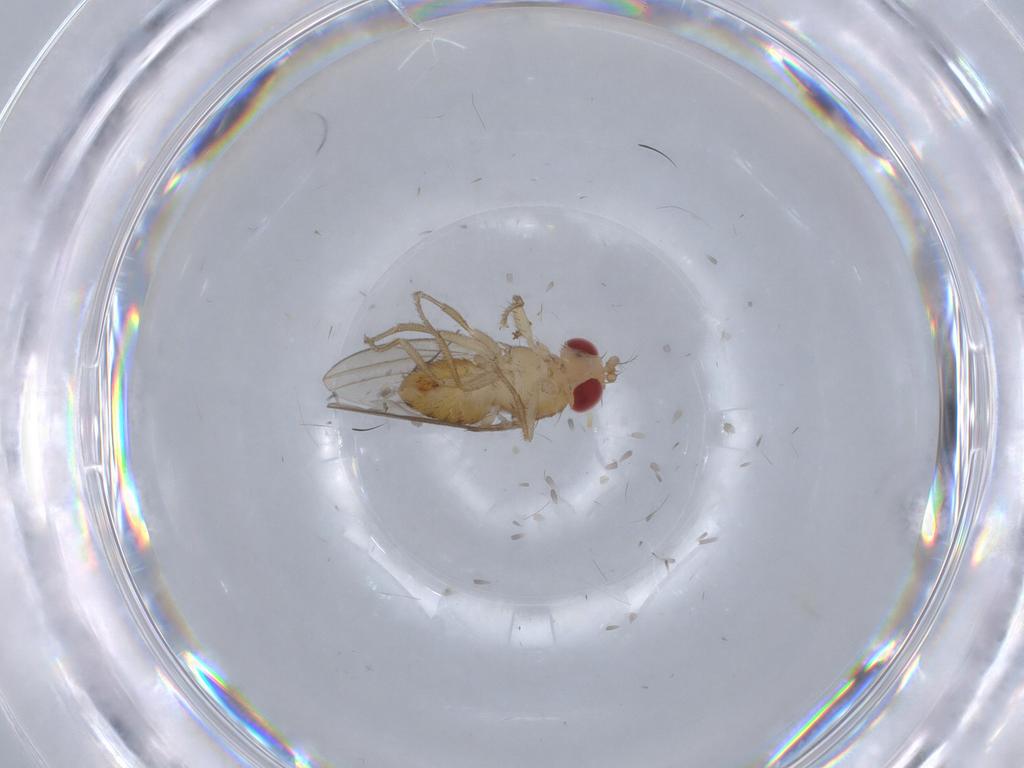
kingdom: Animalia
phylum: Arthropoda
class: Insecta
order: Diptera
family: Drosophilidae
